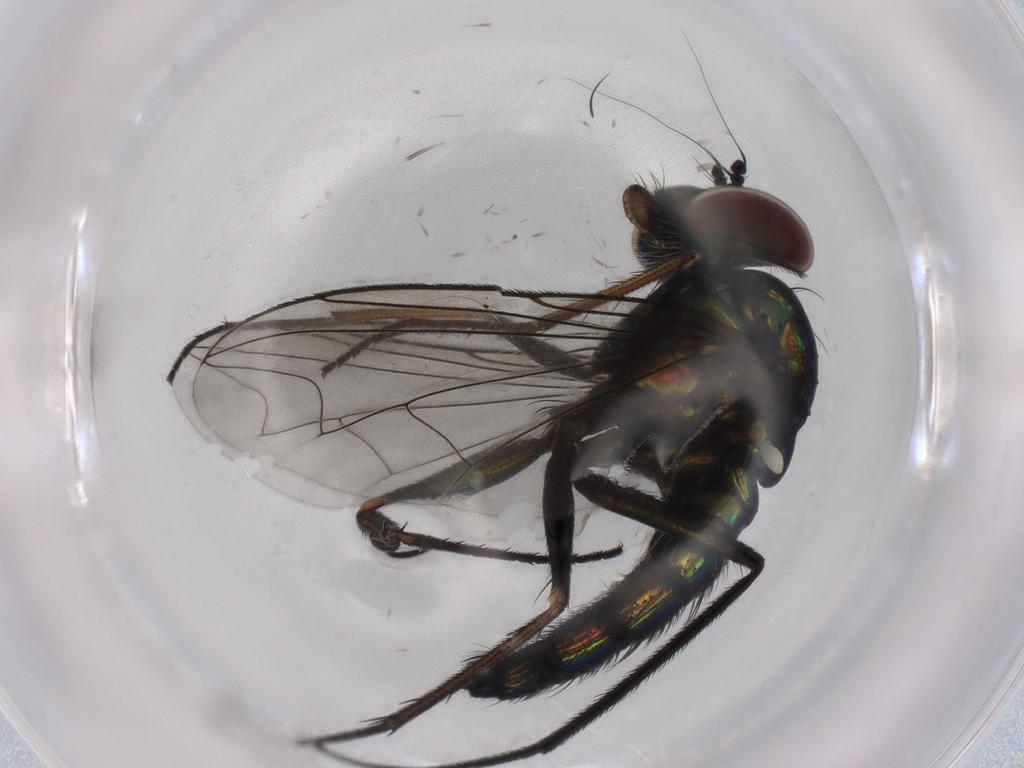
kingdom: Animalia
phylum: Arthropoda
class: Insecta
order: Diptera
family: Dolichopodidae
